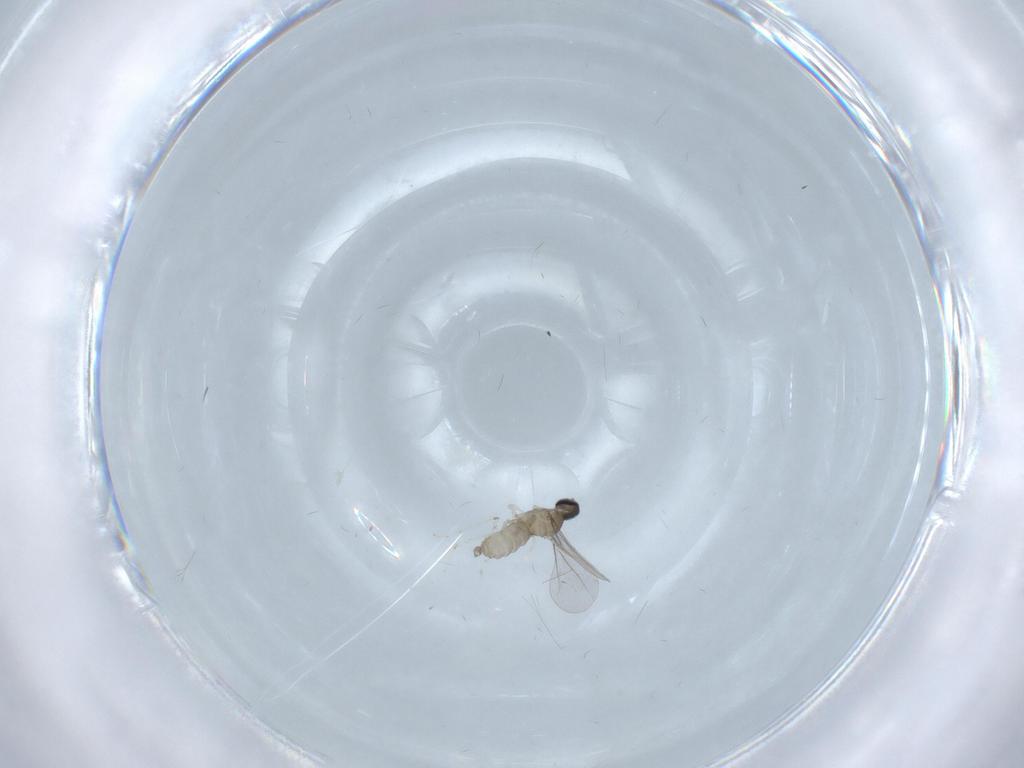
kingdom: Animalia
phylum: Arthropoda
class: Insecta
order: Diptera
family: Cecidomyiidae
